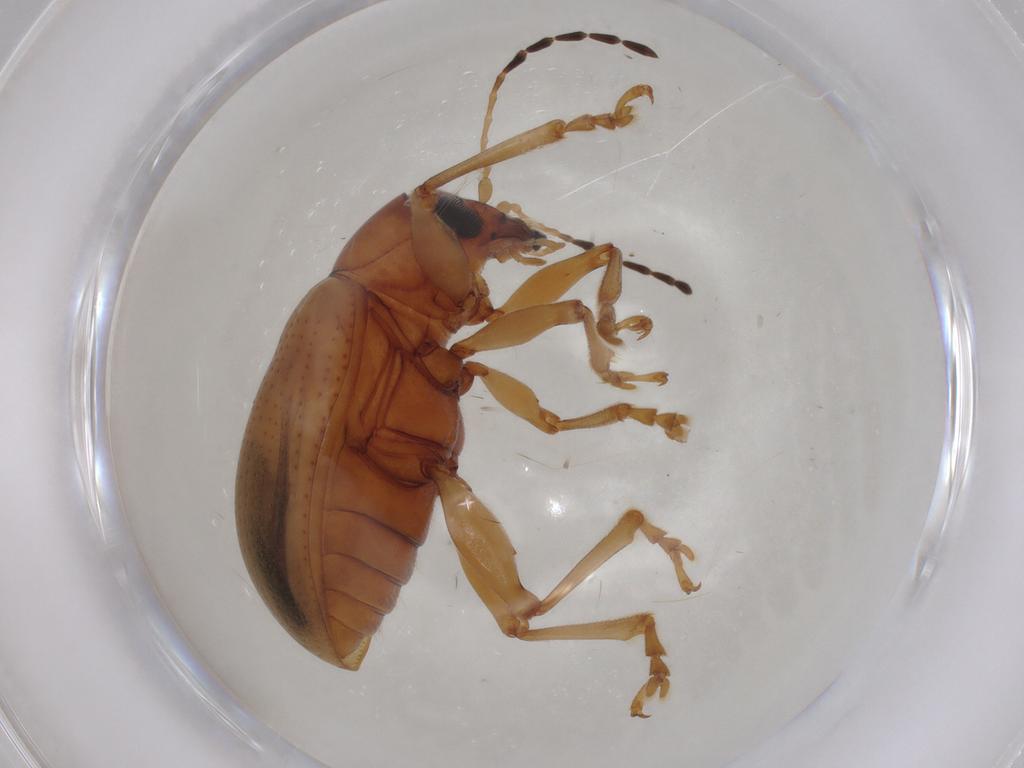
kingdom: Animalia
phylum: Arthropoda
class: Insecta
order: Coleoptera
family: Chrysomelidae
